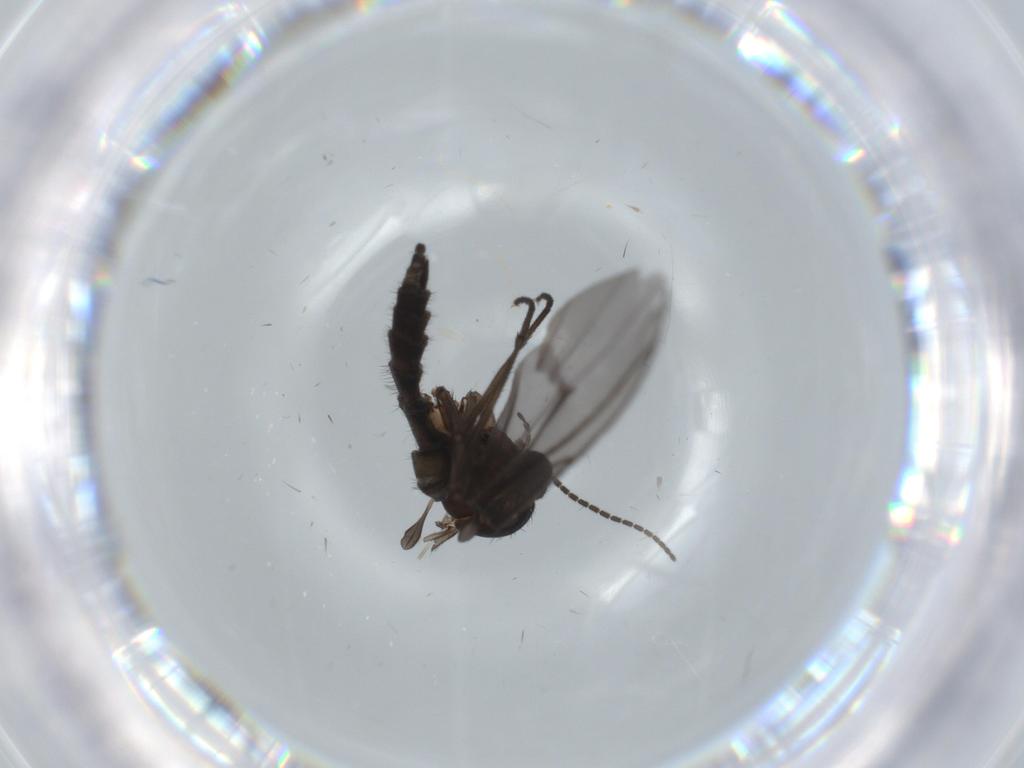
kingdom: Animalia
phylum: Arthropoda
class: Insecta
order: Diptera
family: Sciaridae
